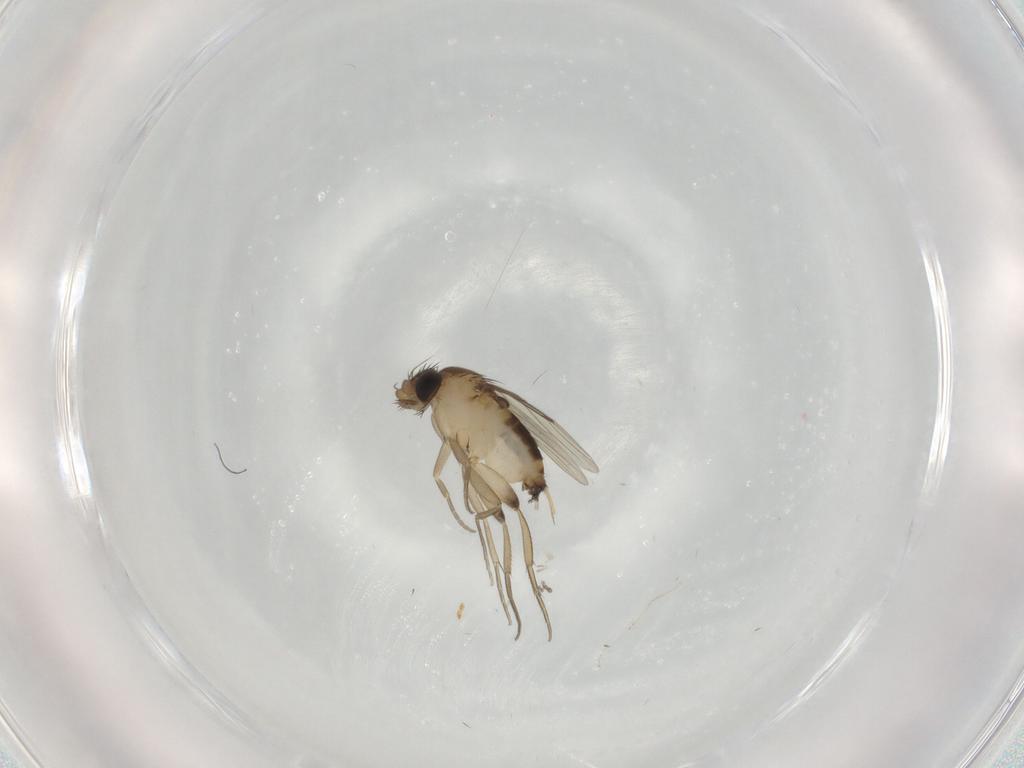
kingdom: Animalia
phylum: Arthropoda
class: Insecta
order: Diptera
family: Phoridae
